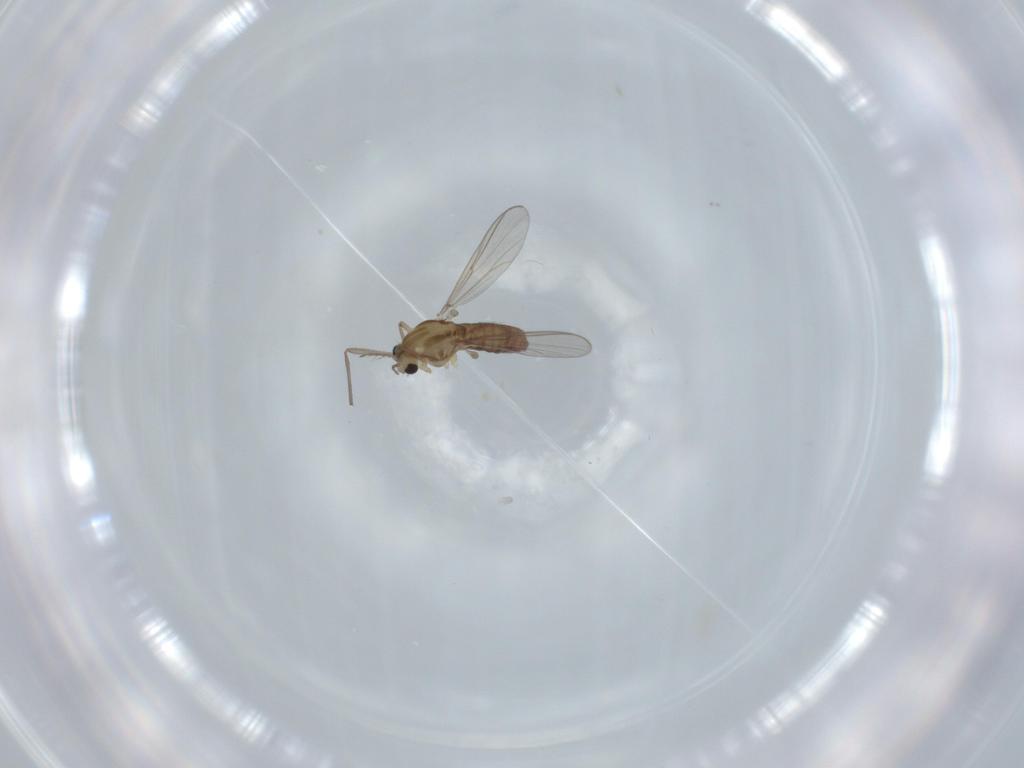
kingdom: Animalia
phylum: Arthropoda
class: Insecta
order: Diptera
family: Chironomidae
